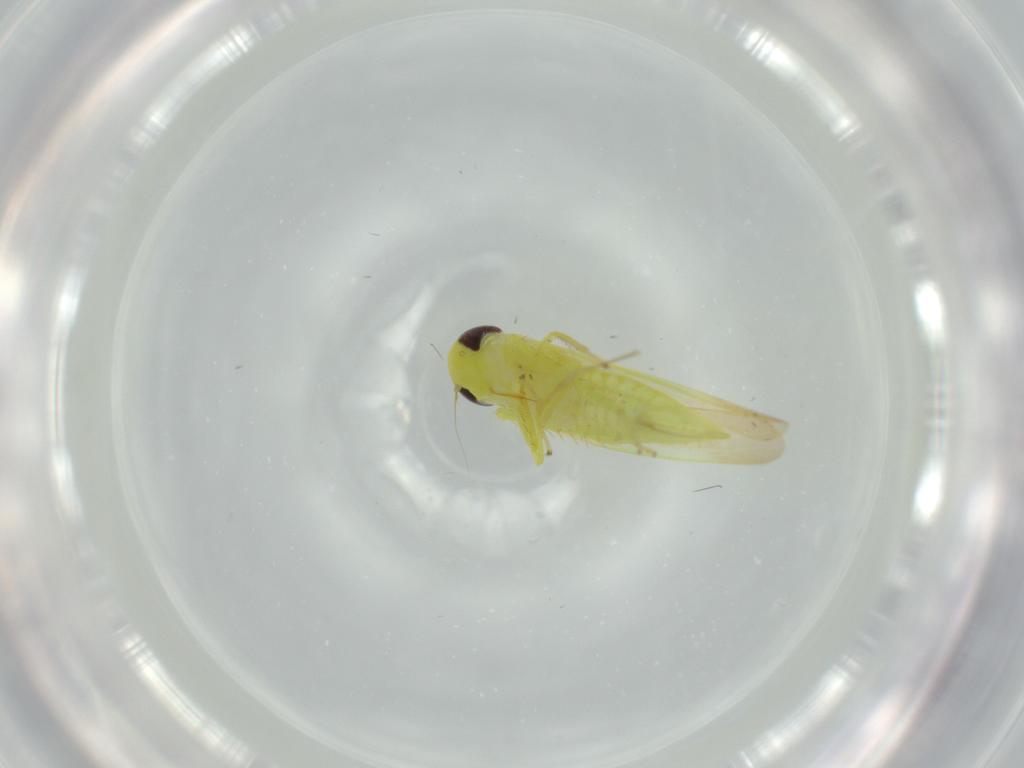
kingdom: Animalia
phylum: Arthropoda
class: Insecta
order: Hemiptera
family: Cicadellidae
